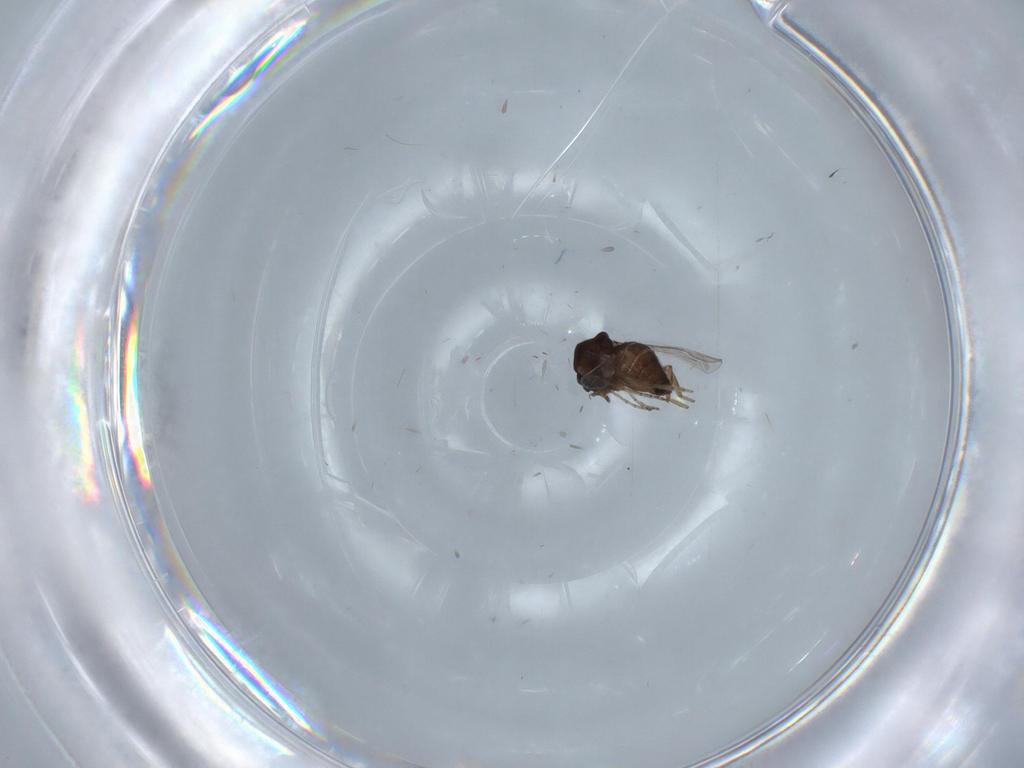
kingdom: Animalia
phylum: Arthropoda
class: Insecta
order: Diptera
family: Ceratopogonidae
